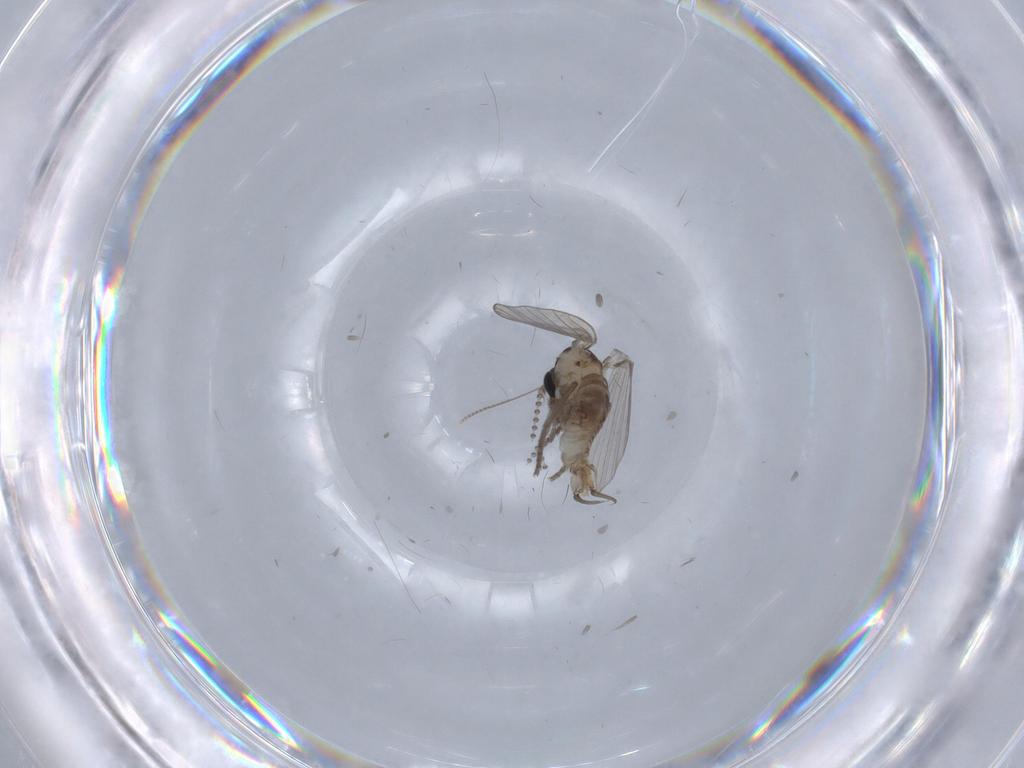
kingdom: Animalia
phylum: Arthropoda
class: Insecta
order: Diptera
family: Psychodidae
